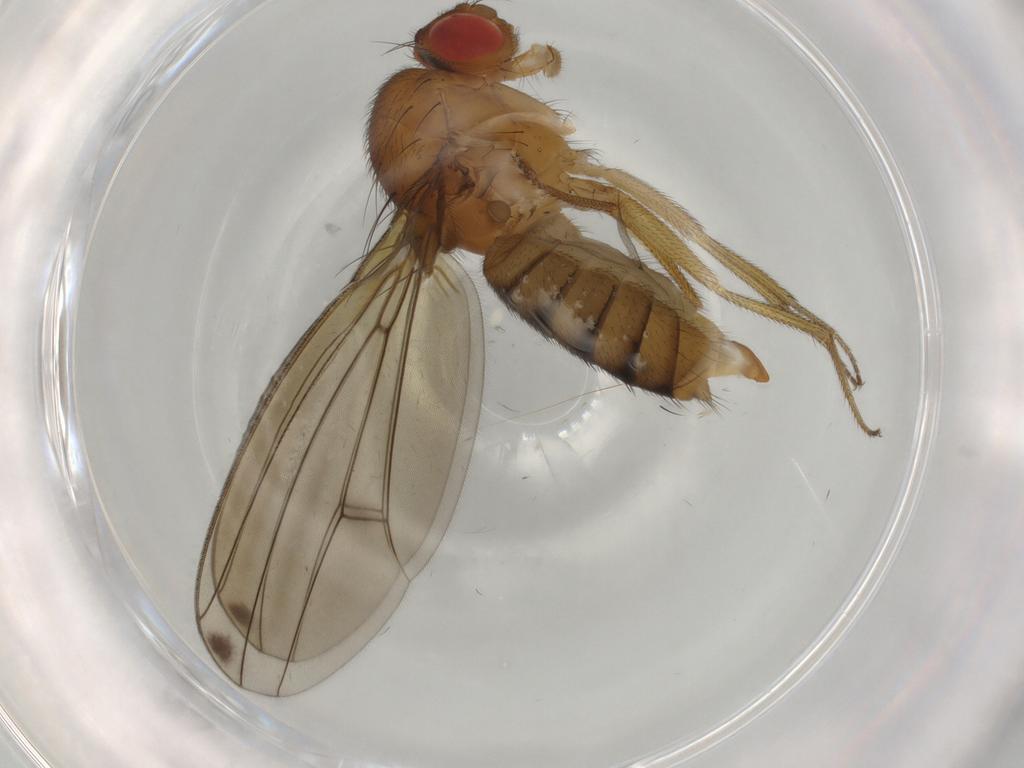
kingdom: Animalia
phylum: Arthropoda
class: Insecta
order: Diptera
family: Drosophilidae
